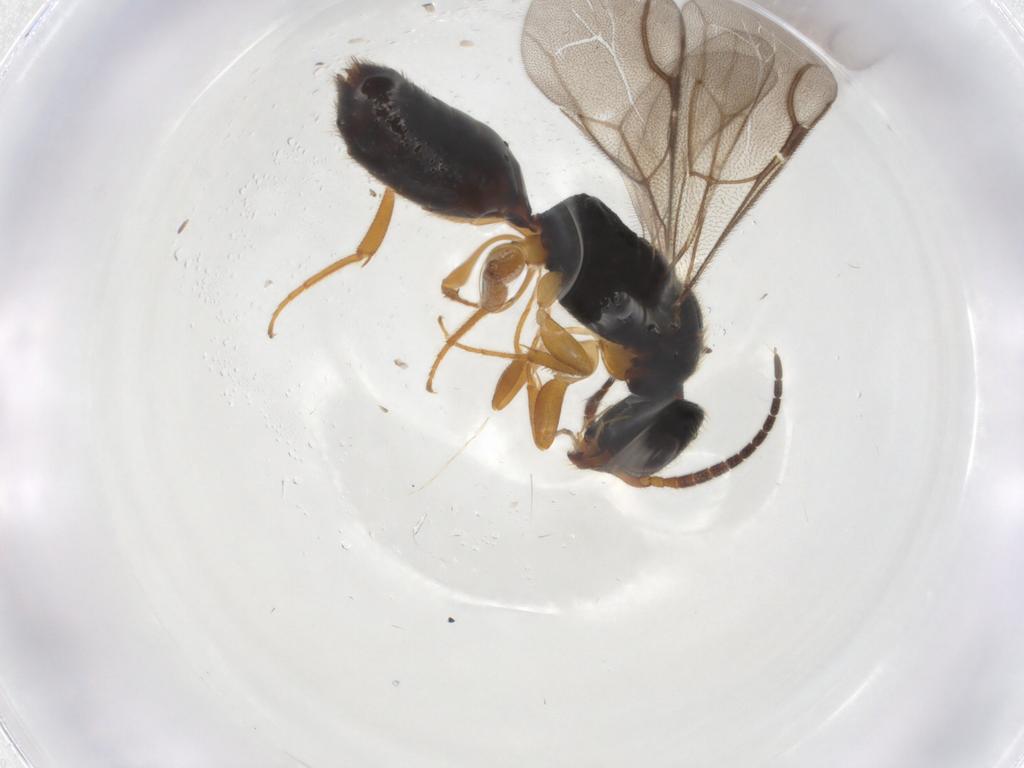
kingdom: Animalia
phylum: Arthropoda
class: Insecta
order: Hymenoptera
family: Bethylidae
